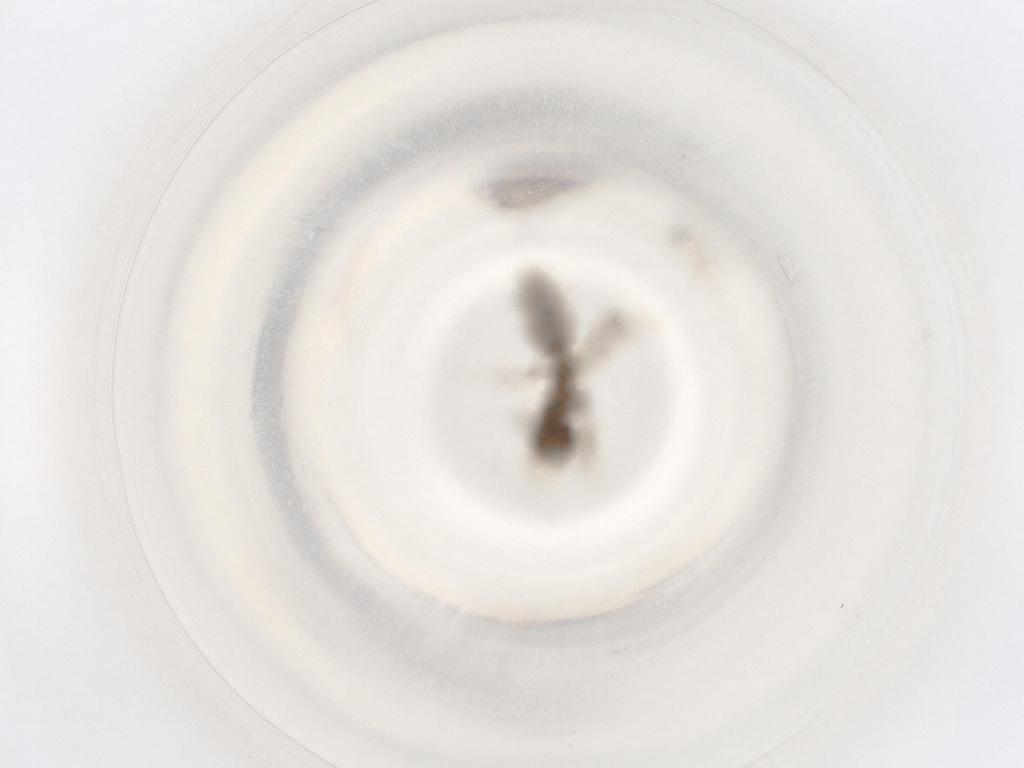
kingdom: Animalia
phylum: Arthropoda
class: Insecta
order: Hymenoptera
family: Formicidae
